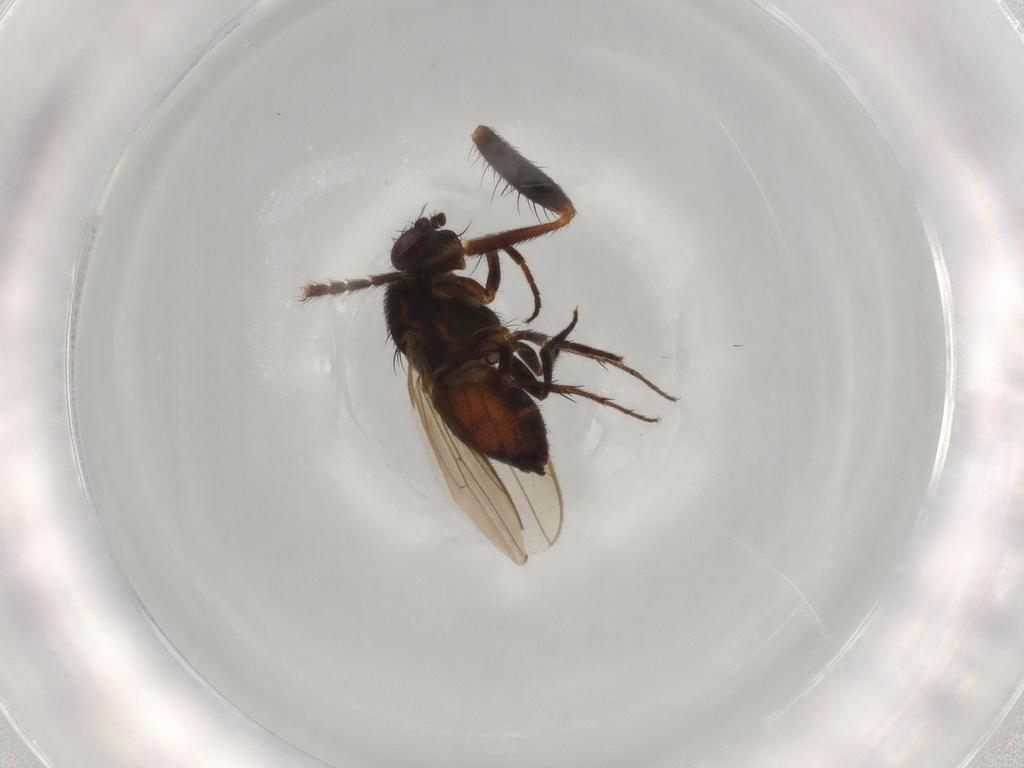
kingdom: Animalia
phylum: Arthropoda
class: Insecta
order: Diptera
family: Sphaeroceridae
